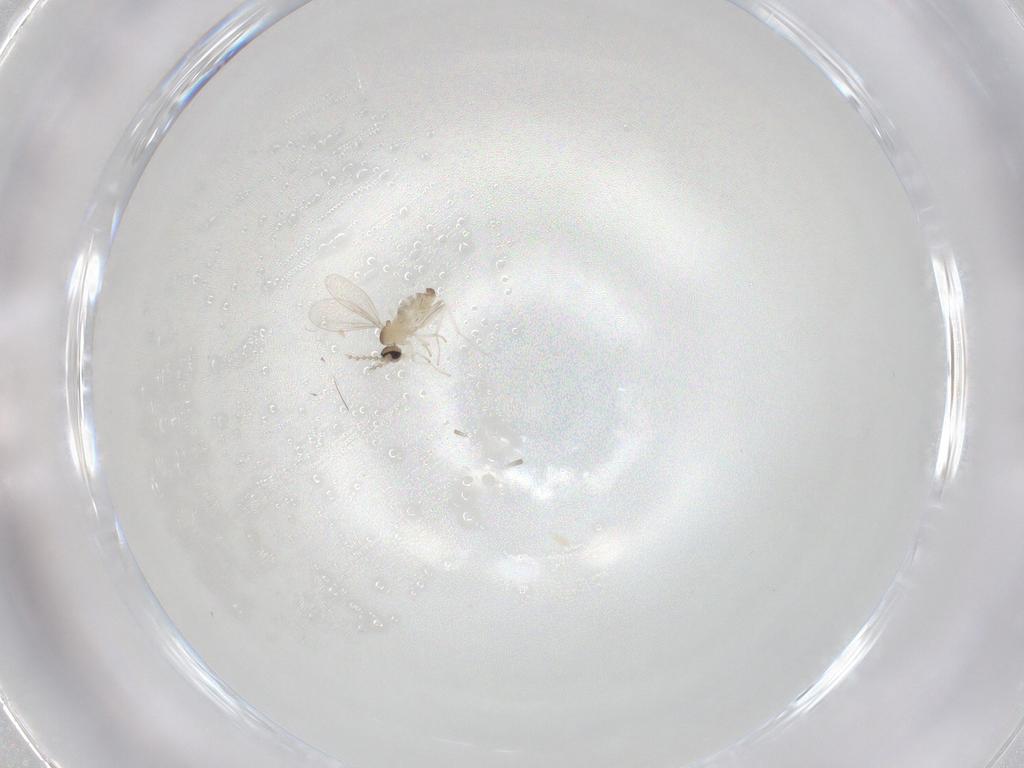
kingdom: Animalia
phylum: Arthropoda
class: Insecta
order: Diptera
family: Cecidomyiidae
